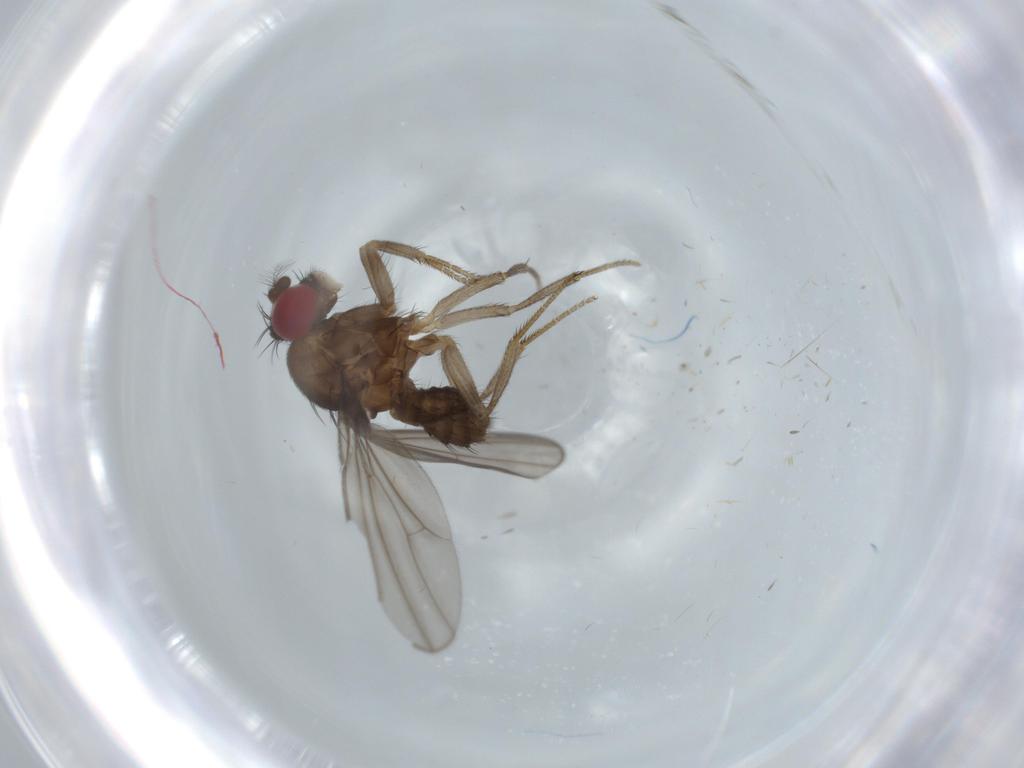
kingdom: Animalia
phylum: Arthropoda
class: Insecta
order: Diptera
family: Drosophilidae
